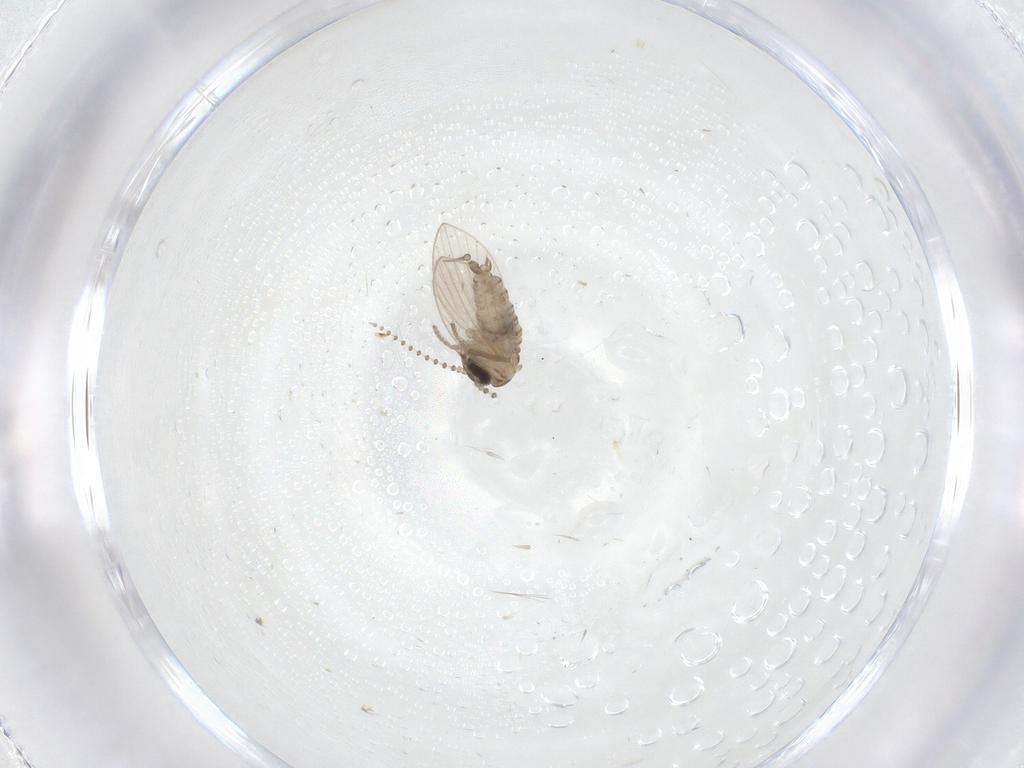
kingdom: Animalia
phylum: Arthropoda
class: Insecta
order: Diptera
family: Psychodidae
